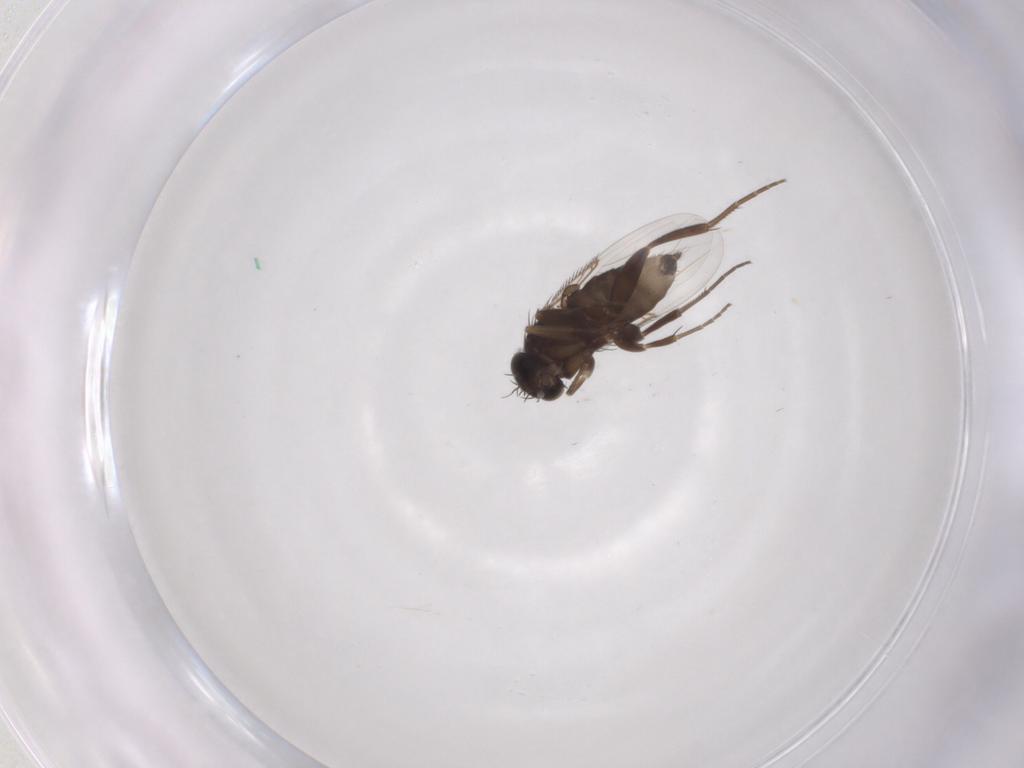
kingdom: Animalia
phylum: Arthropoda
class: Insecta
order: Diptera
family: Phoridae
